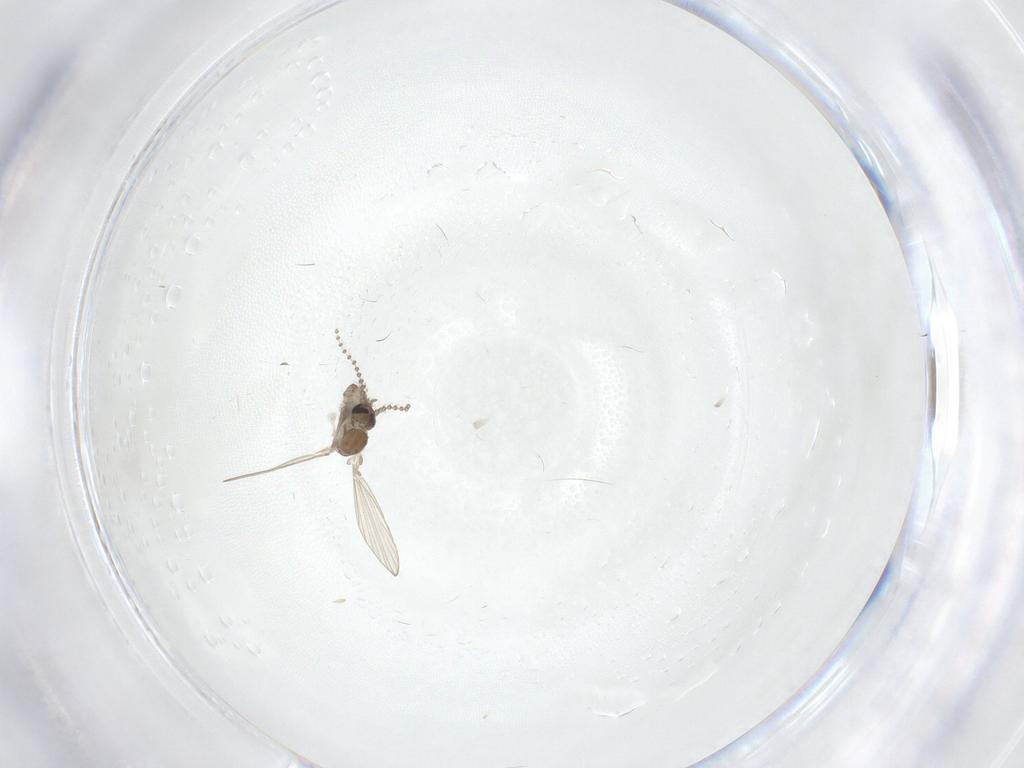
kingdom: Animalia
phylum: Arthropoda
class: Insecta
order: Diptera
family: Psychodidae
